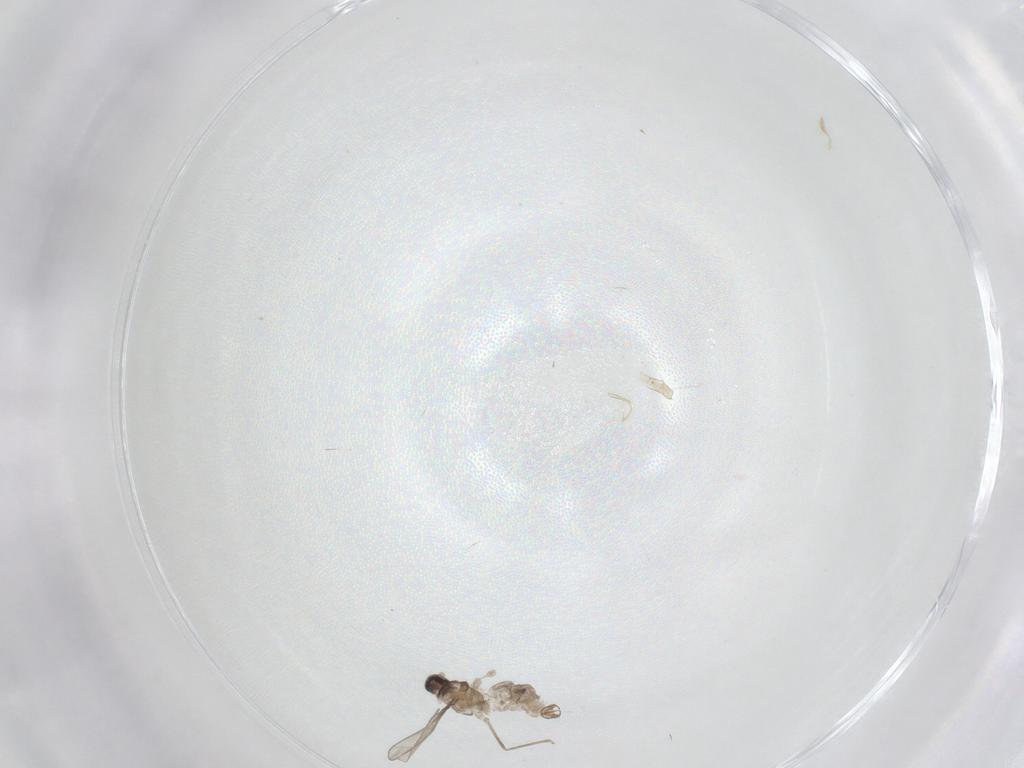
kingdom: Animalia
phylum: Arthropoda
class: Insecta
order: Diptera
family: Cecidomyiidae
